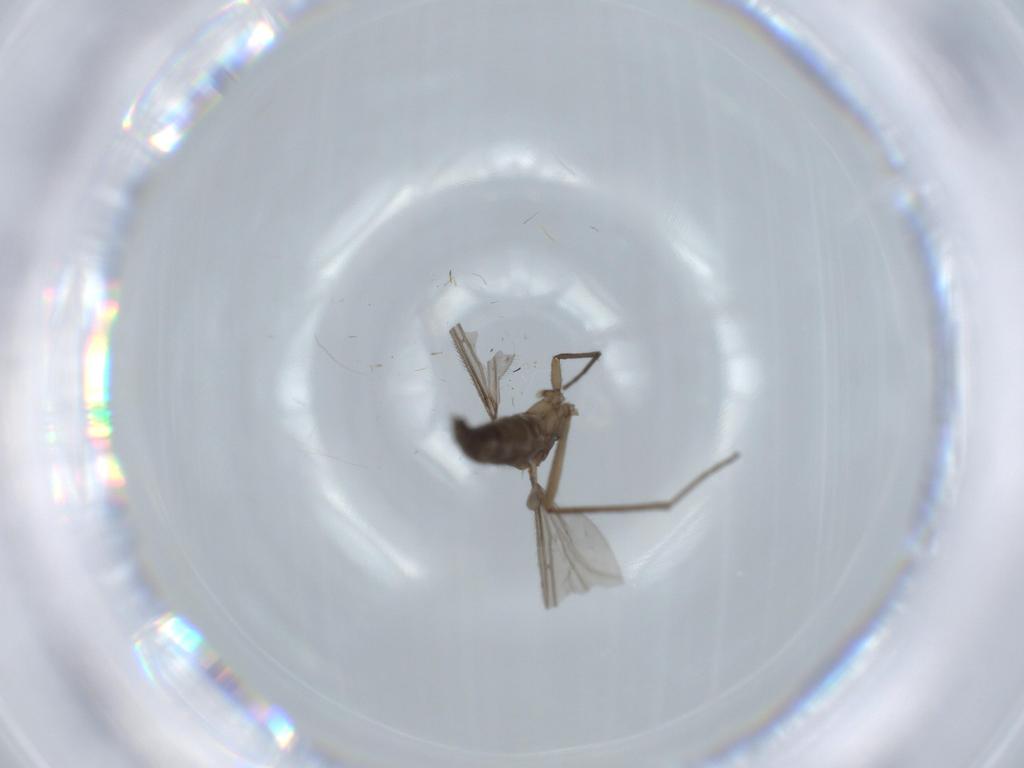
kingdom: Animalia
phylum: Arthropoda
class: Insecta
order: Diptera
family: Sciaridae
